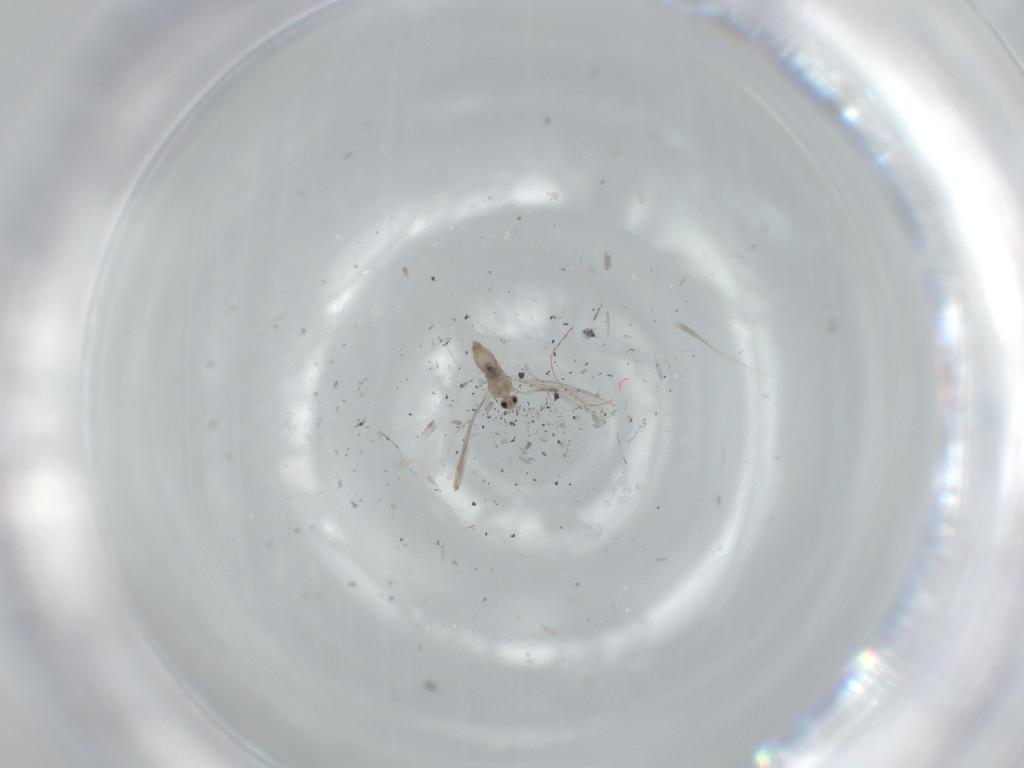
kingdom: Animalia
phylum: Arthropoda
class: Insecta
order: Diptera
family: Cecidomyiidae
